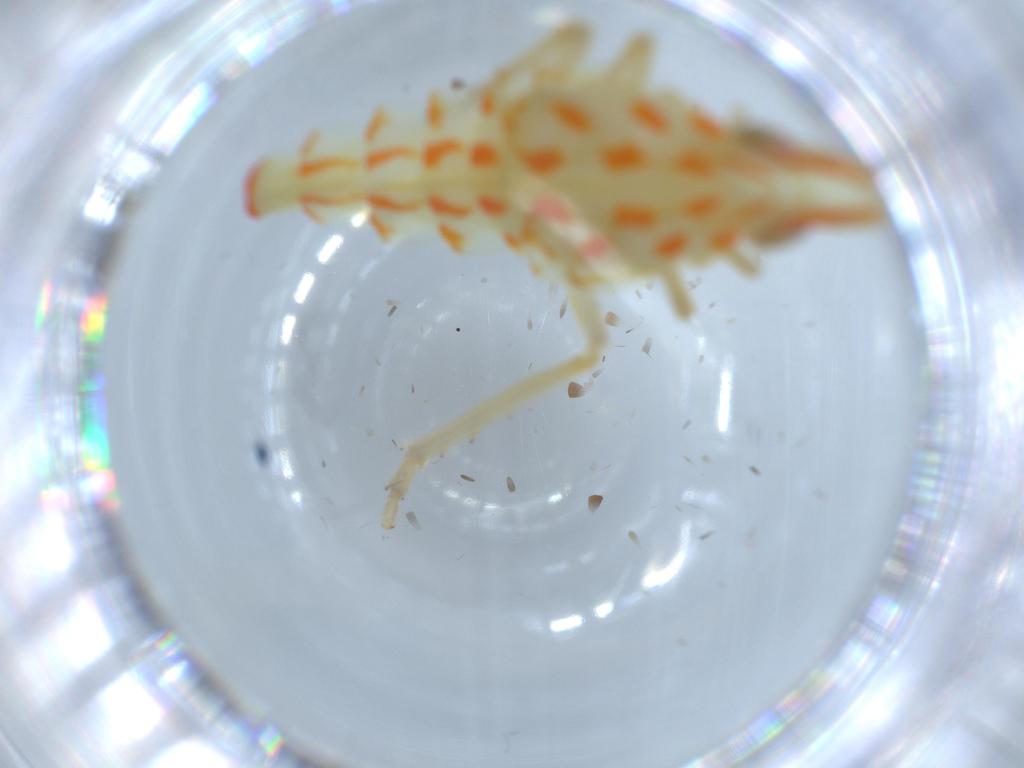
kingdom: Animalia
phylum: Arthropoda
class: Insecta
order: Hemiptera
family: Tropiduchidae
